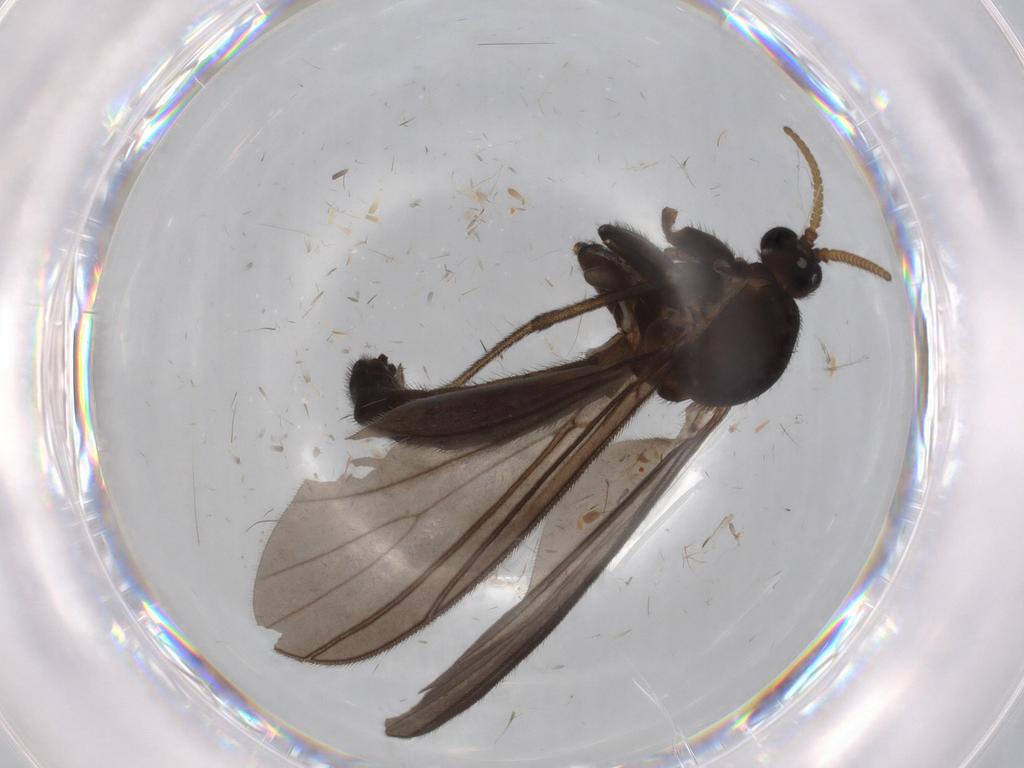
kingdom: Animalia
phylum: Arthropoda
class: Insecta
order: Diptera
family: Mycetophilidae
